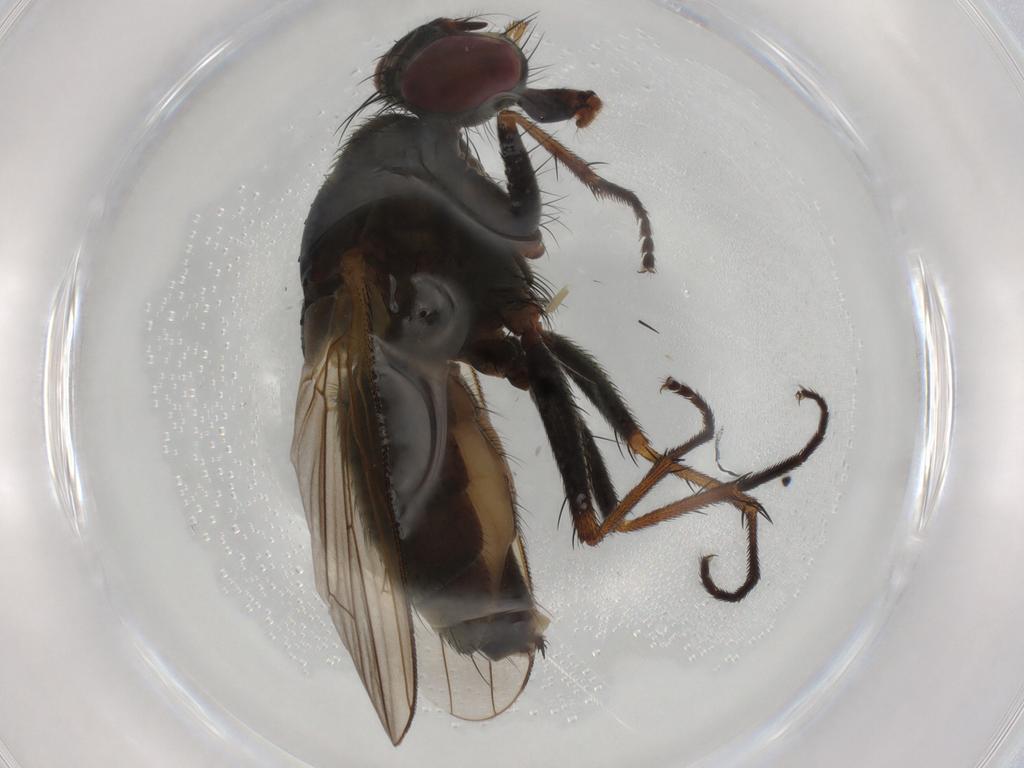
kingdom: Animalia
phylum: Arthropoda
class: Insecta
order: Diptera
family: Muscidae
